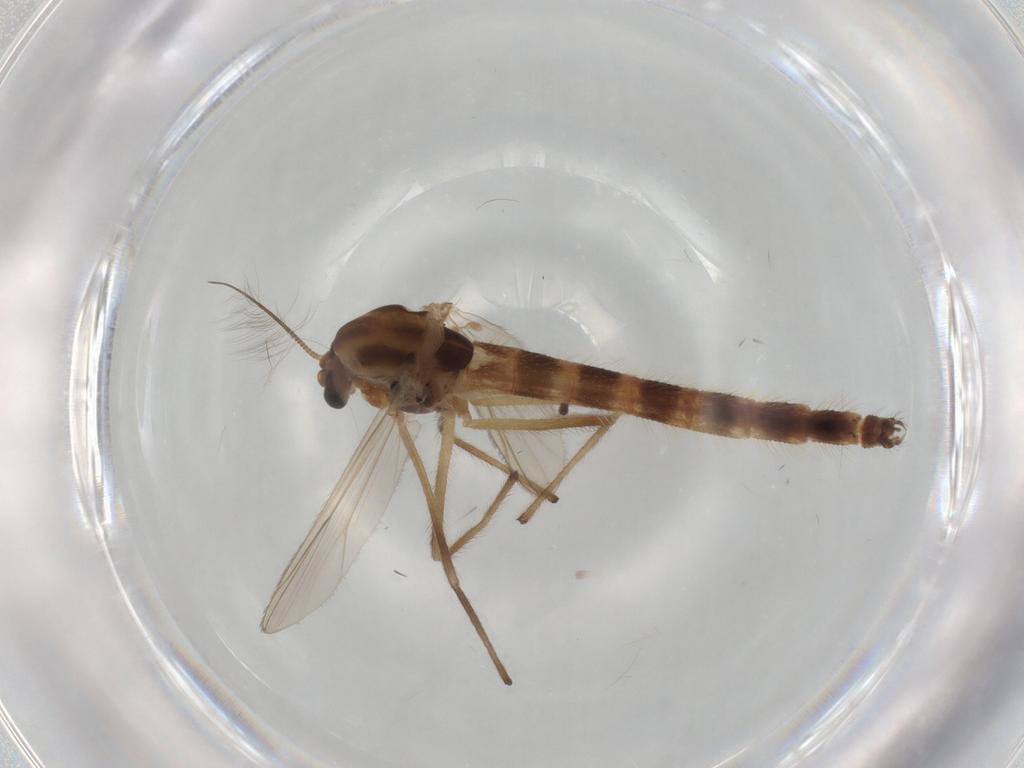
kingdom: Animalia
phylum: Arthropoda
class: Insecta
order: Diptera
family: Chironomidae
